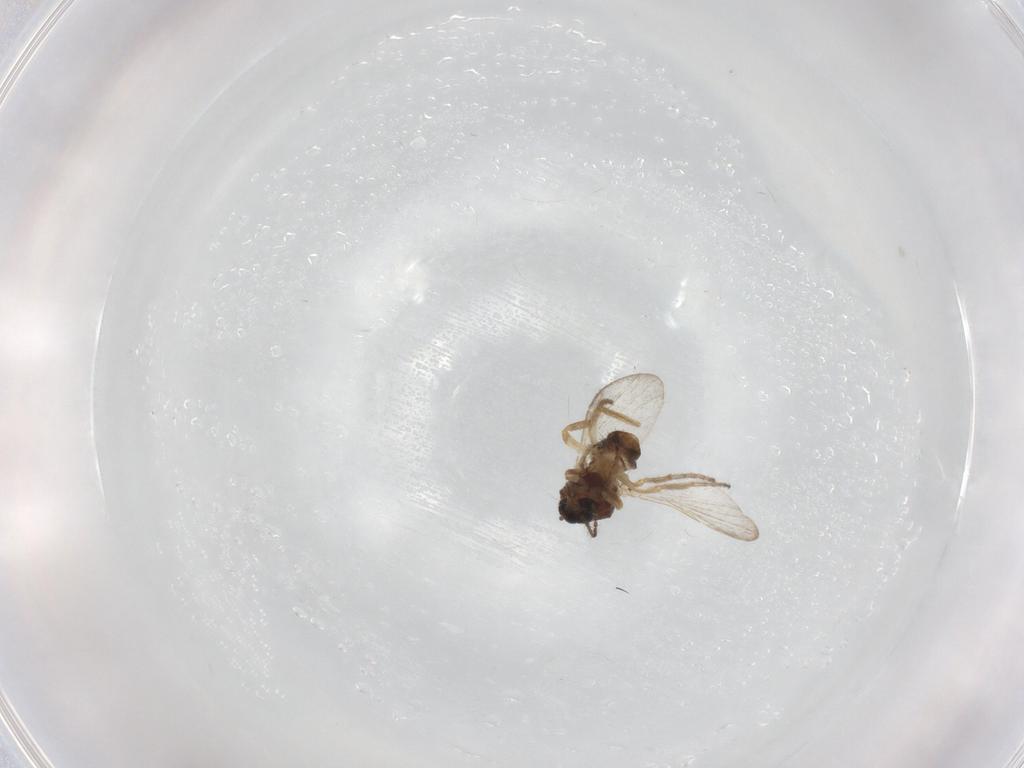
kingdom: Animalia
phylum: Arthropoda
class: Insecta
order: Diptera
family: Ceratopogonidae
